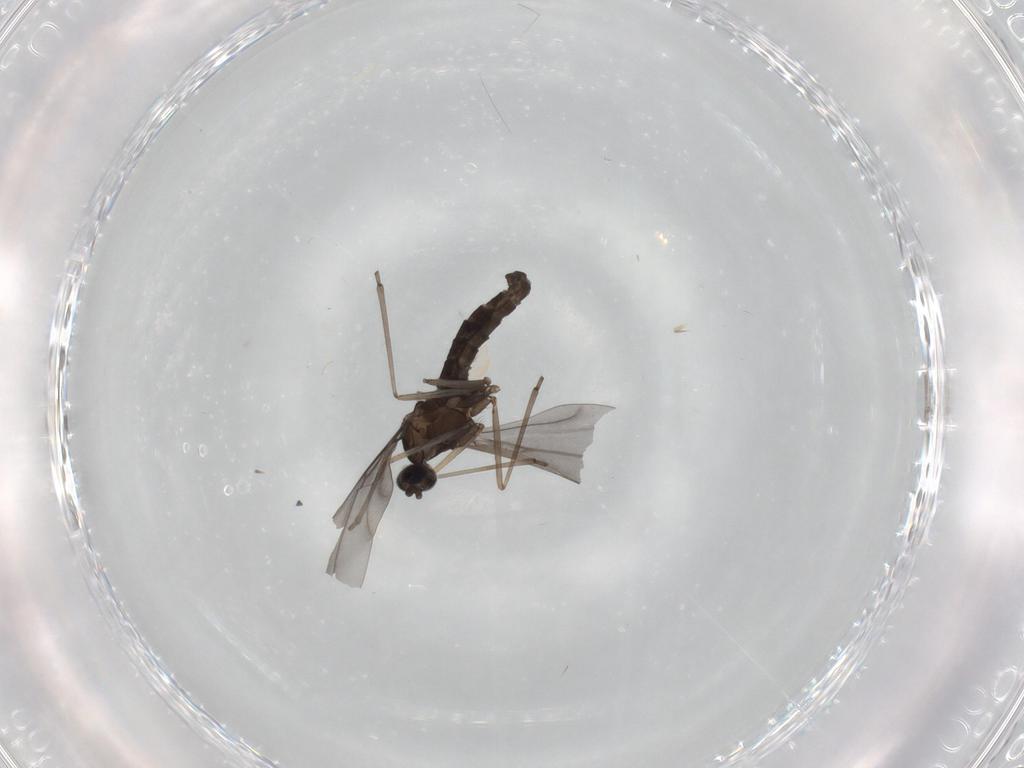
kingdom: Animalia
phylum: Arthropoda
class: Insecta
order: Diptera
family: Cecidomyiidae
